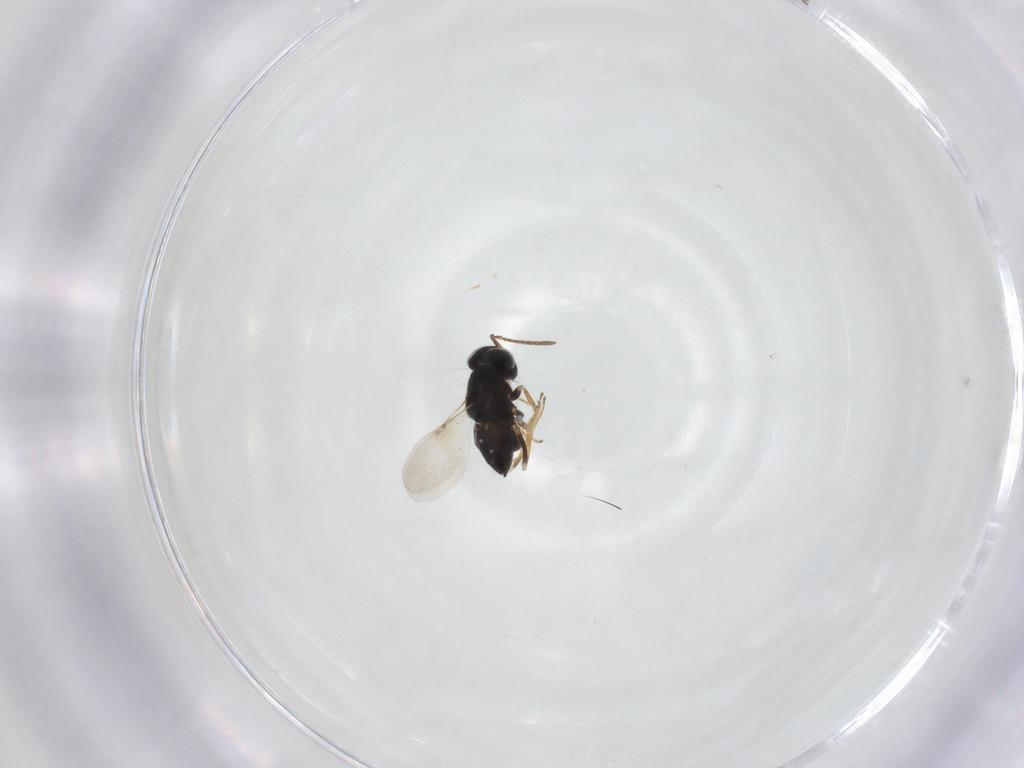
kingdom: Animalia
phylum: Arthropoda
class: Insecta
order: Hymenoptera
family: Encyrtidae
